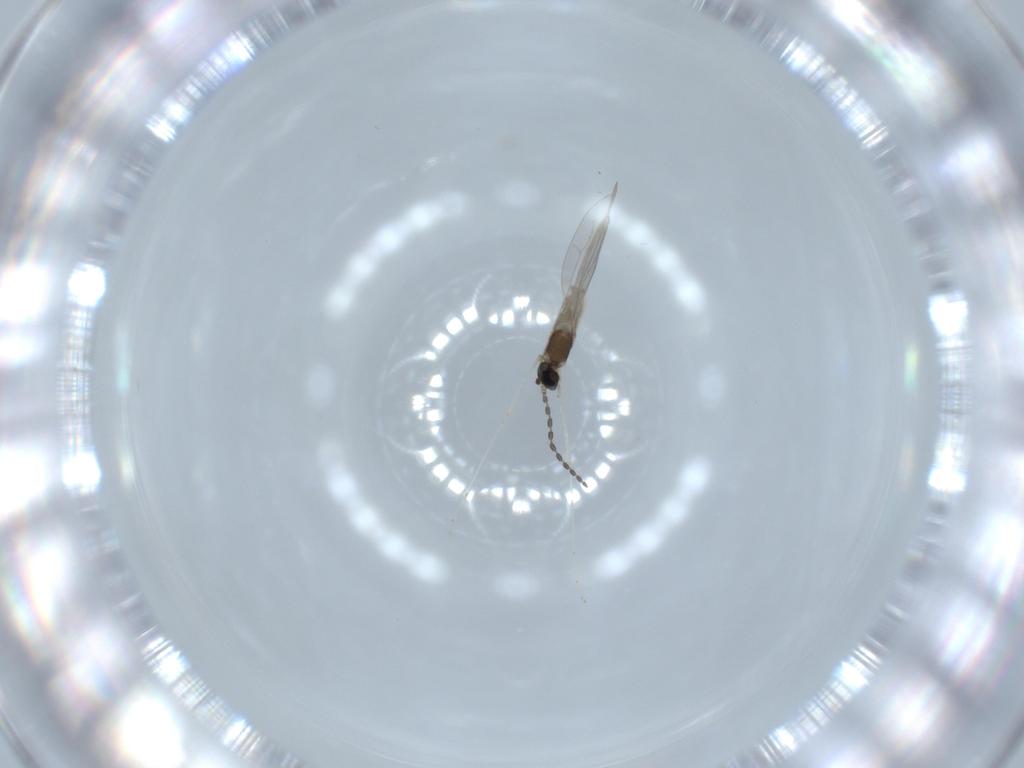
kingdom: Animalia
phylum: Arthropoda
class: Insecta
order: Diptera
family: Cecidomyiidae
